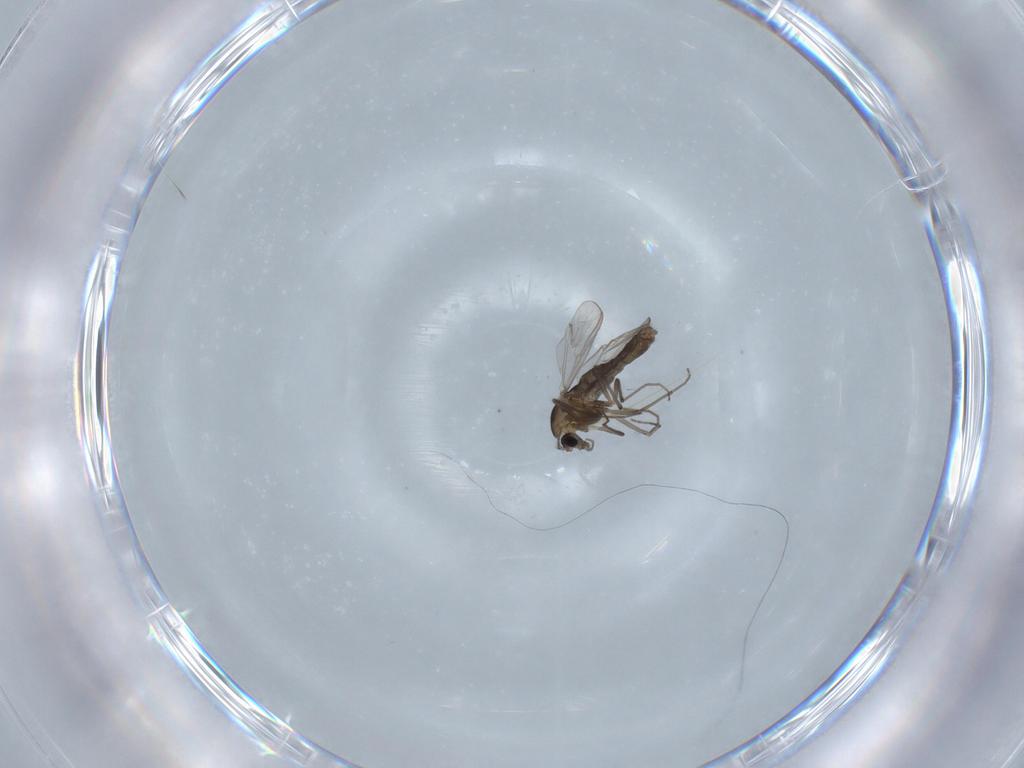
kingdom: Animalia
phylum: Arthropoda
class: Insecta
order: Diptera
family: Chironomidae
